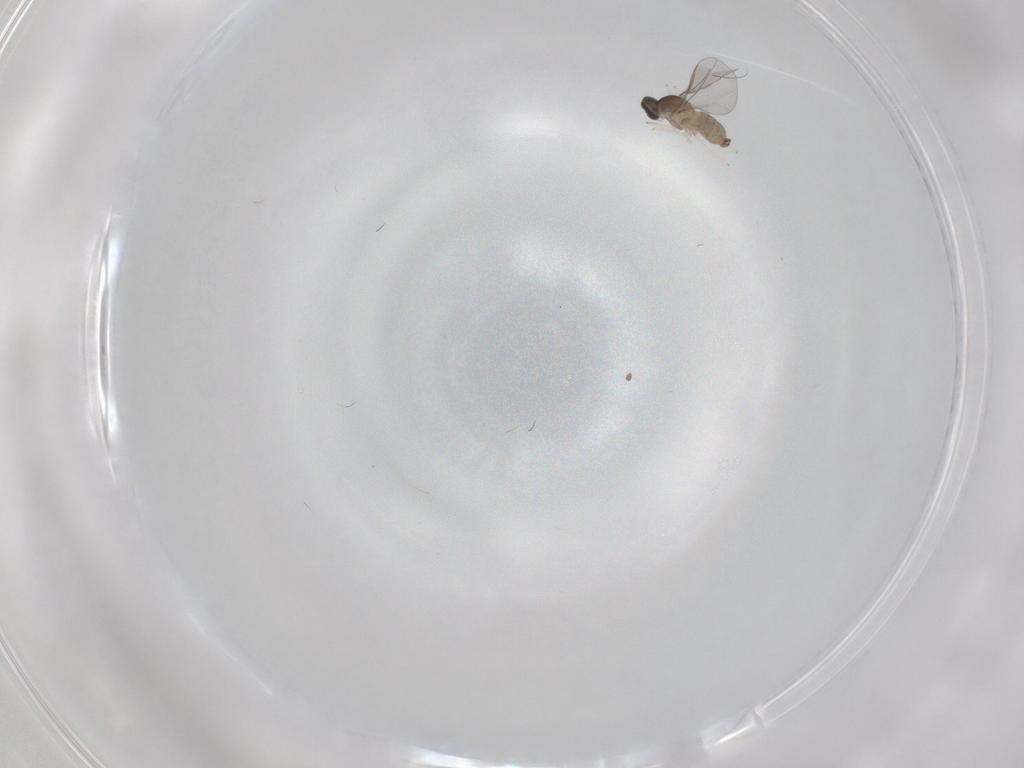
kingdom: Animalia
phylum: Arthropoda
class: Insecta
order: Diptera
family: Cecidomyiidae
